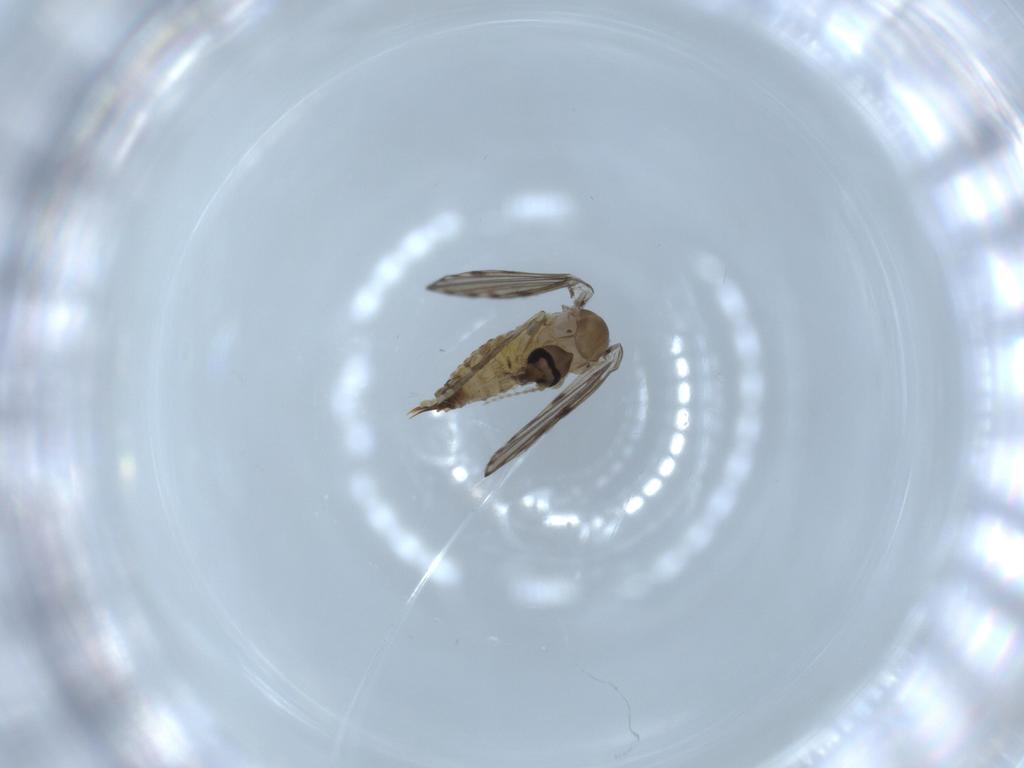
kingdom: Animalia
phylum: Arthropoda
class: Insecta
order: Diptera
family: Psychodidae
